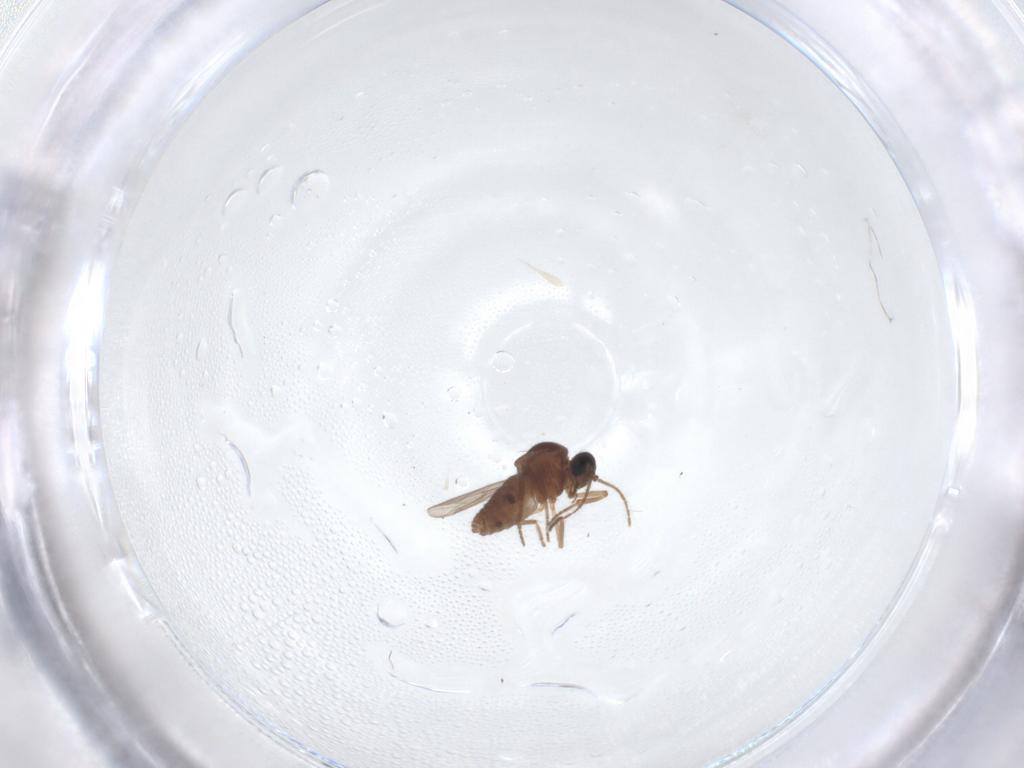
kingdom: Animalia
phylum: Arthropoda
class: Insecta
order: Diptera
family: Ceratopogonidae
